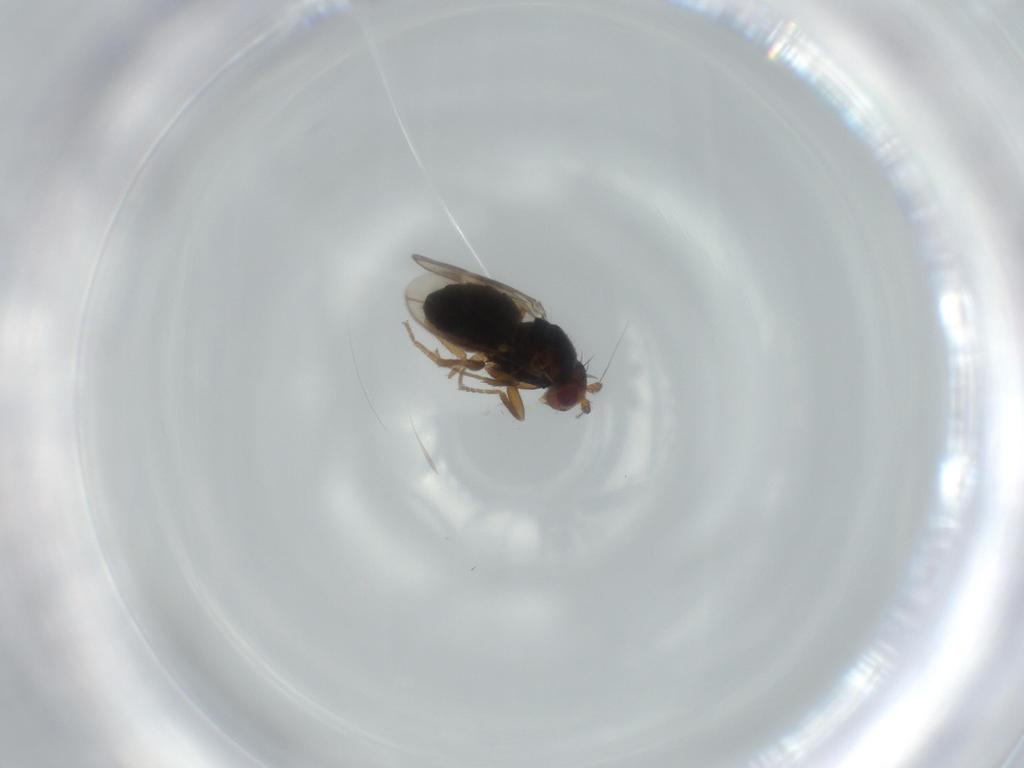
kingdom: Animalia
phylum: Arthropoda
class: Insecta
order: Diptera
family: Sphaeroceridae
